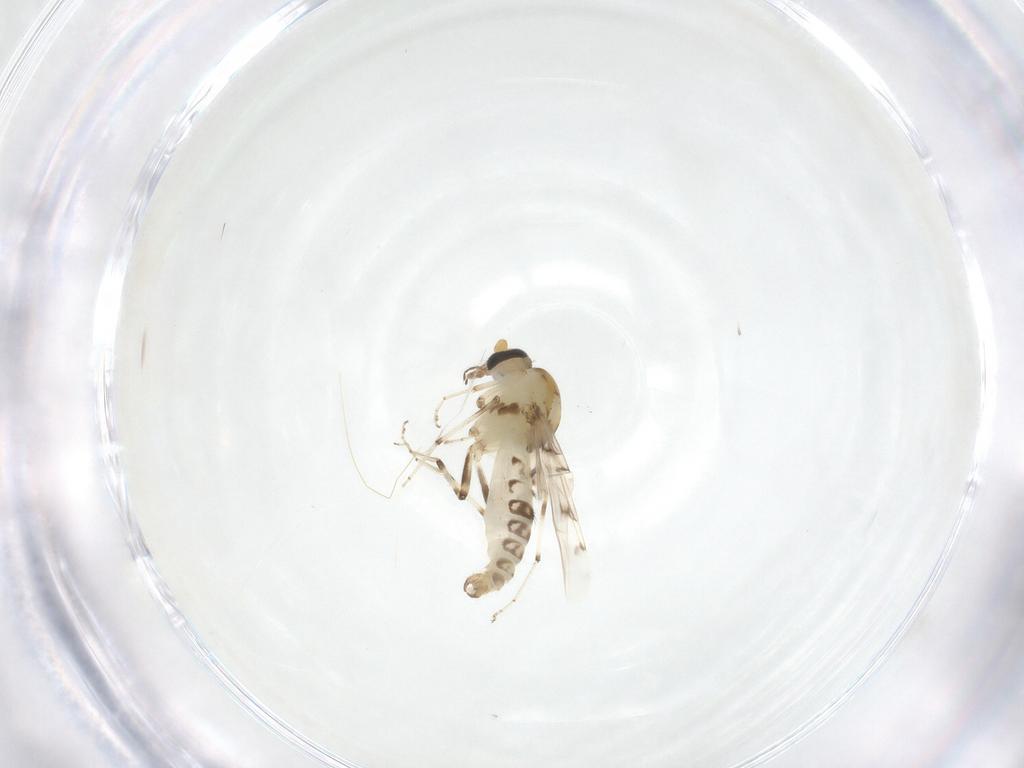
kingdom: Animalia
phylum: Arthropoda
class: Insecta
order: Diptera
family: Ceratopogonidae
